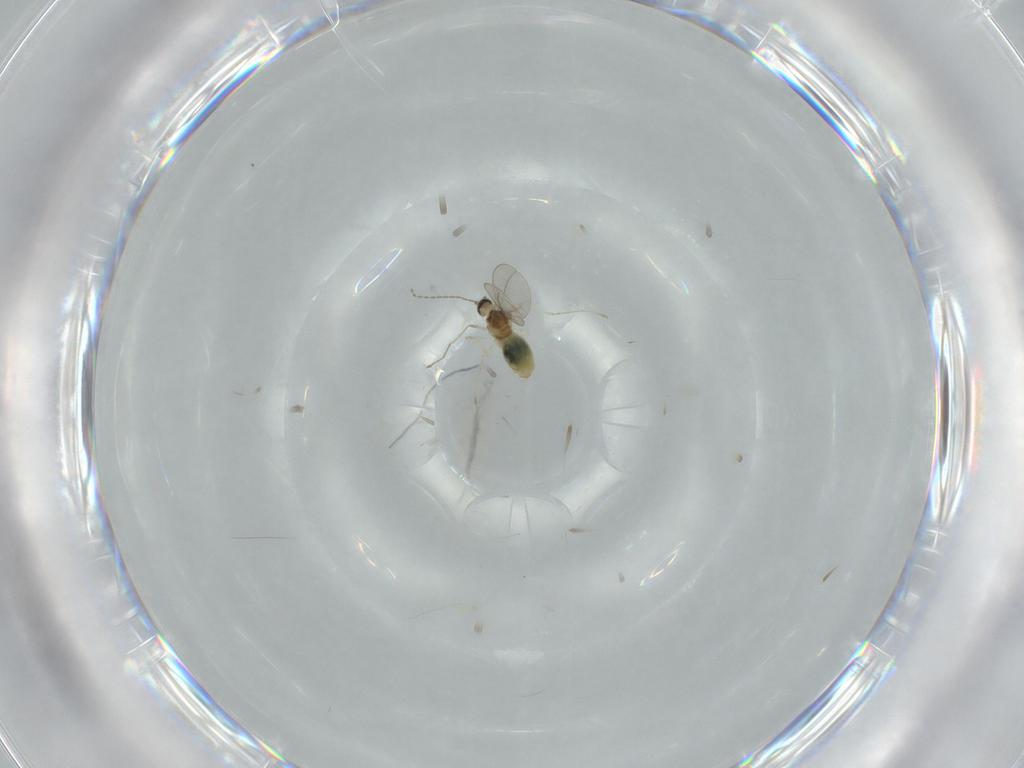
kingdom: Animalia
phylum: Arthropoda
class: Insecta
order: Diptera
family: Cecidomyiidae
